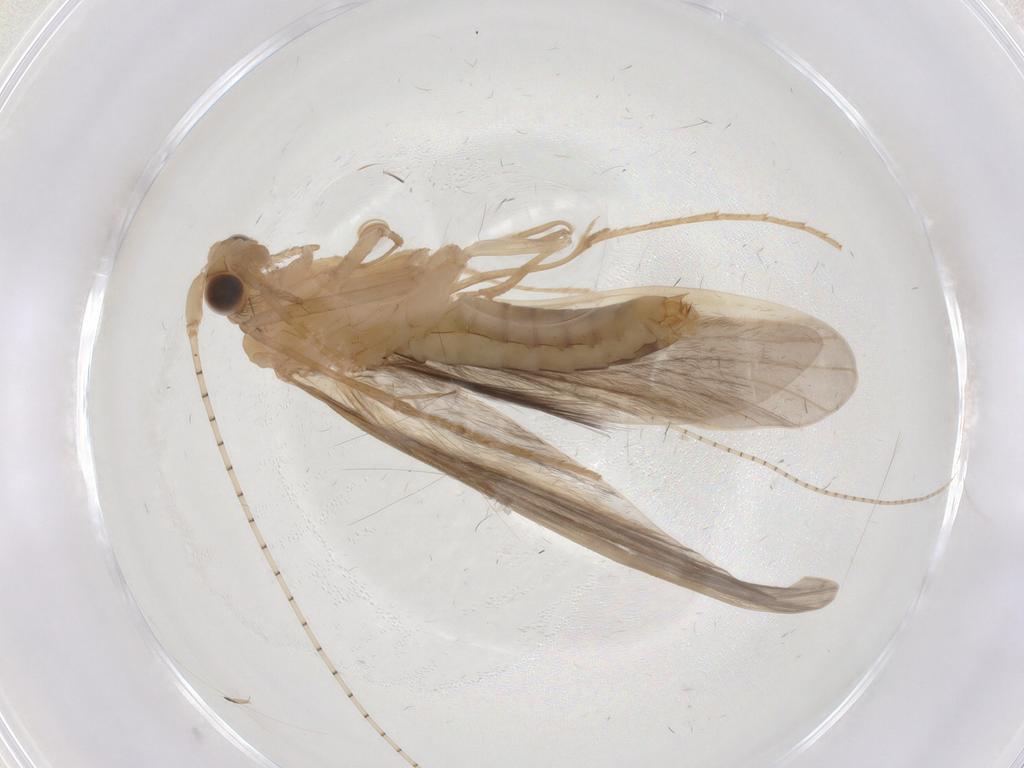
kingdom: Animalia
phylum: Arthropoda
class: Insecta
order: Trichoptera
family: Leptoceridae
